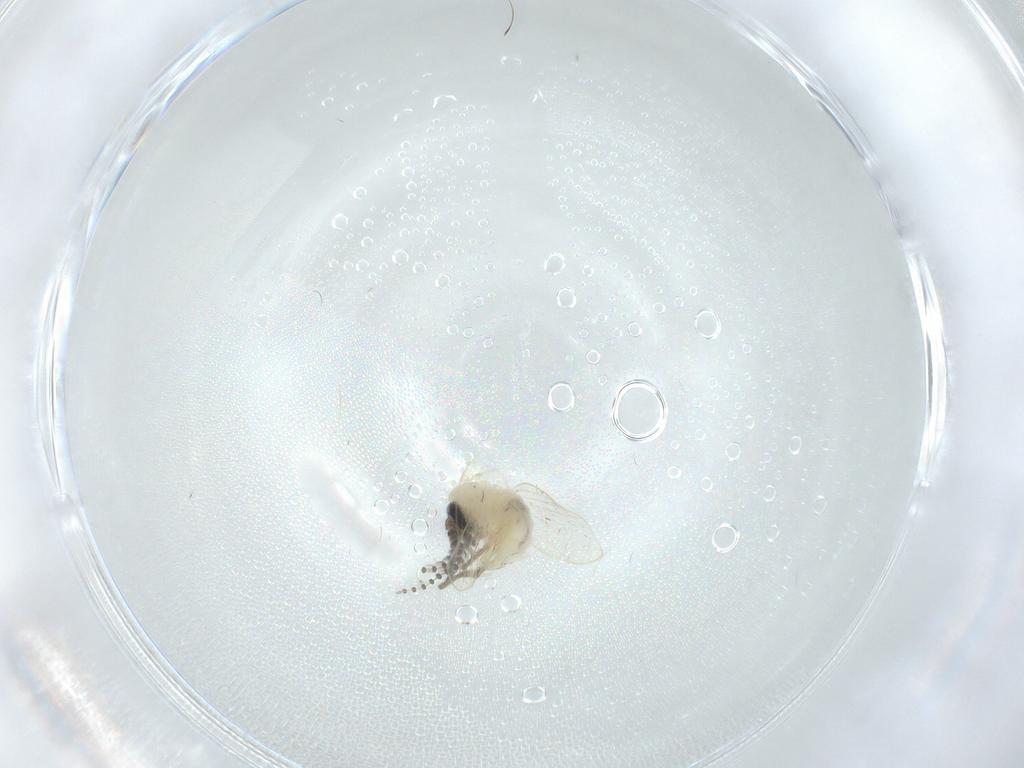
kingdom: Animalia
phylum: Arthropoda
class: Insecta
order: Diptera
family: Psychodidae
